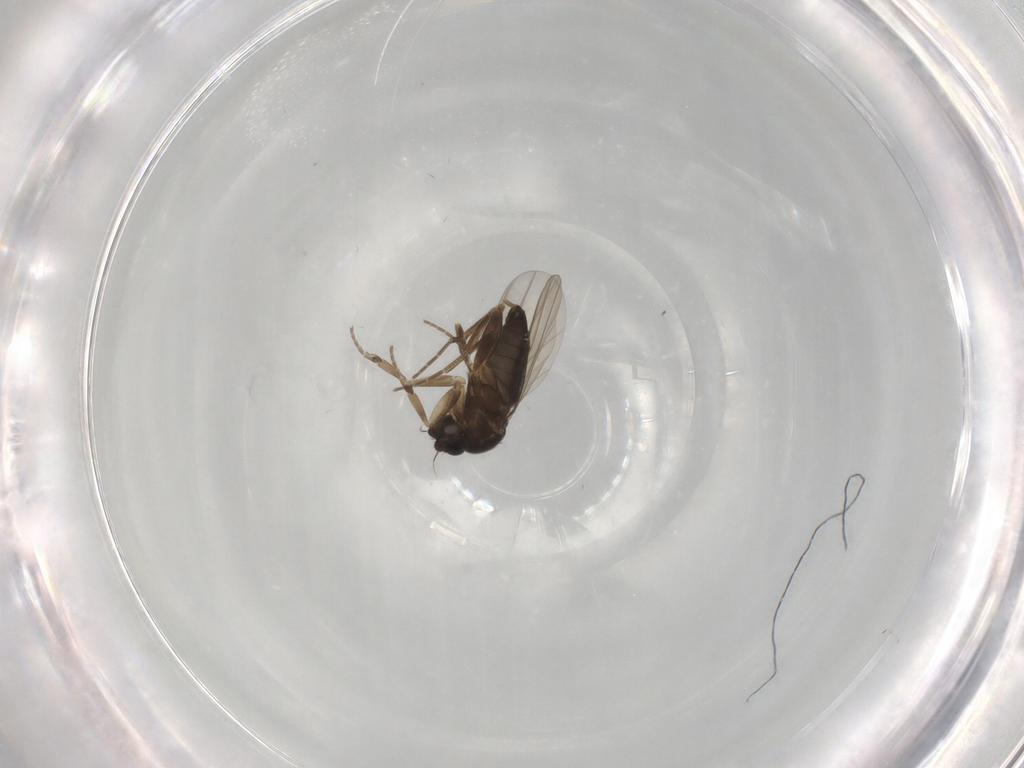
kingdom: Animalia
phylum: Arthropoda
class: Insecta
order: Diptera
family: Phoridae
